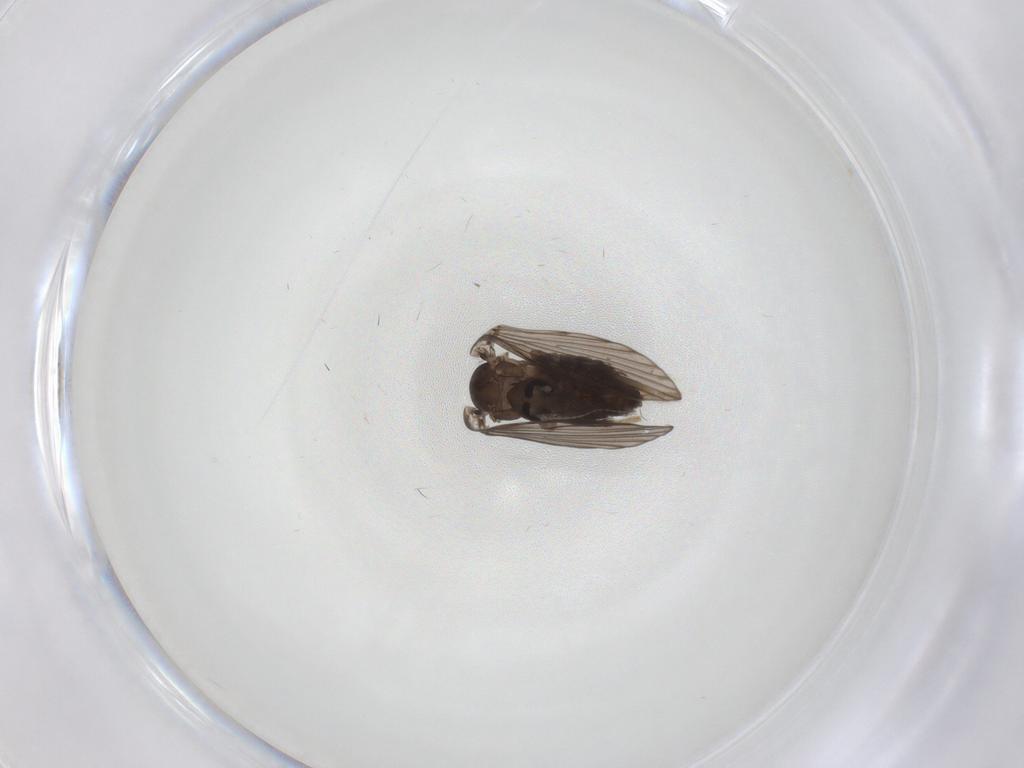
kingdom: Animalia
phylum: Arthropoda
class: Insecta
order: Diptera
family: Psychodidae
